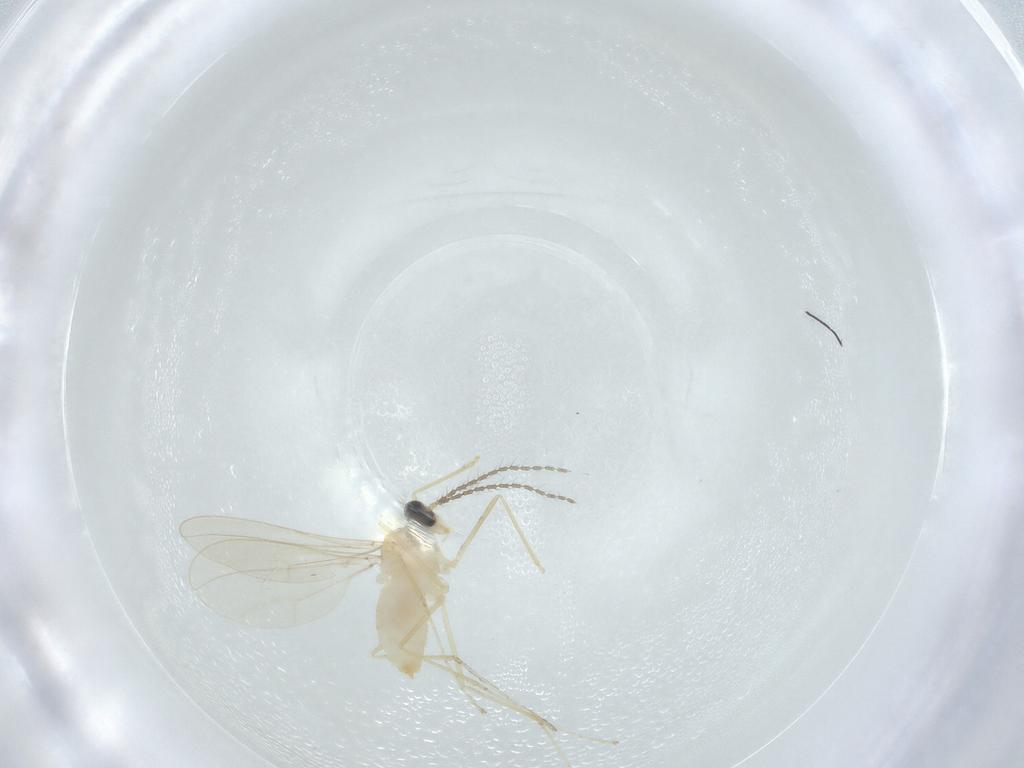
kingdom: Animalia
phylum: Arthropoda
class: Insecta
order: Diptera
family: Cecidomyiidae
